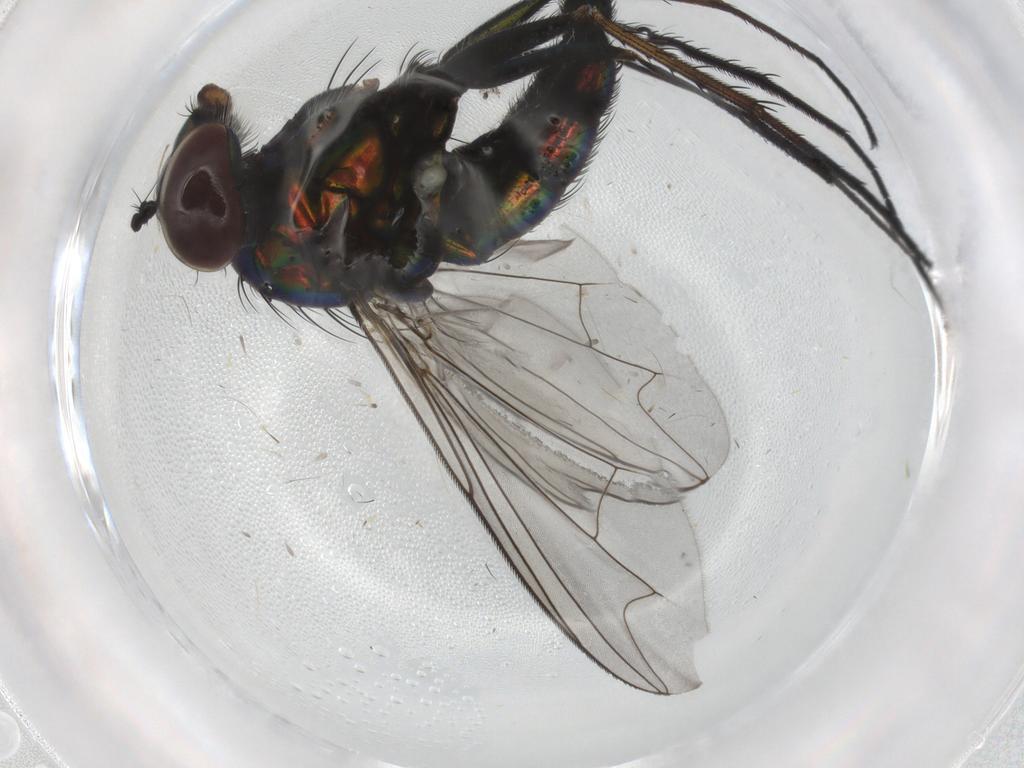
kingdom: Animalia
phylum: Arthropoda
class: Insecta
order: Diptera
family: Dolichopodidae
